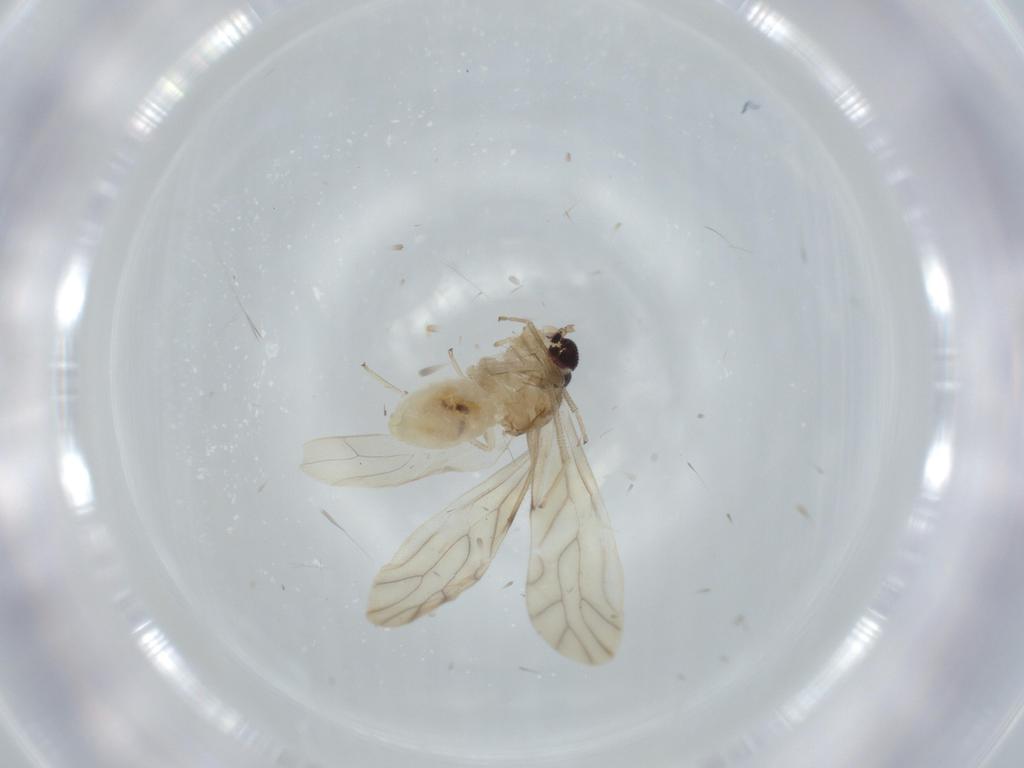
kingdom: Animalia
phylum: Arthropoda
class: Insecta
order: Psocodea
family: Caeciliusidae
